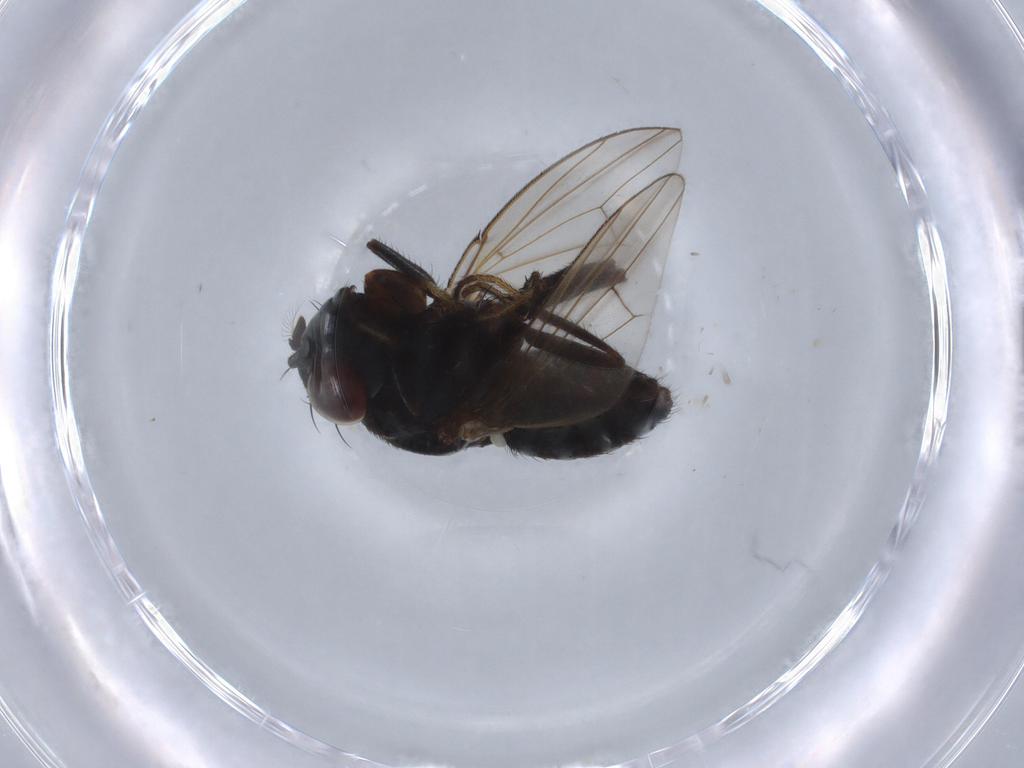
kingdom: Animalia
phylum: Arthropoda
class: Insecta
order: Diptera
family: Ephydridae
